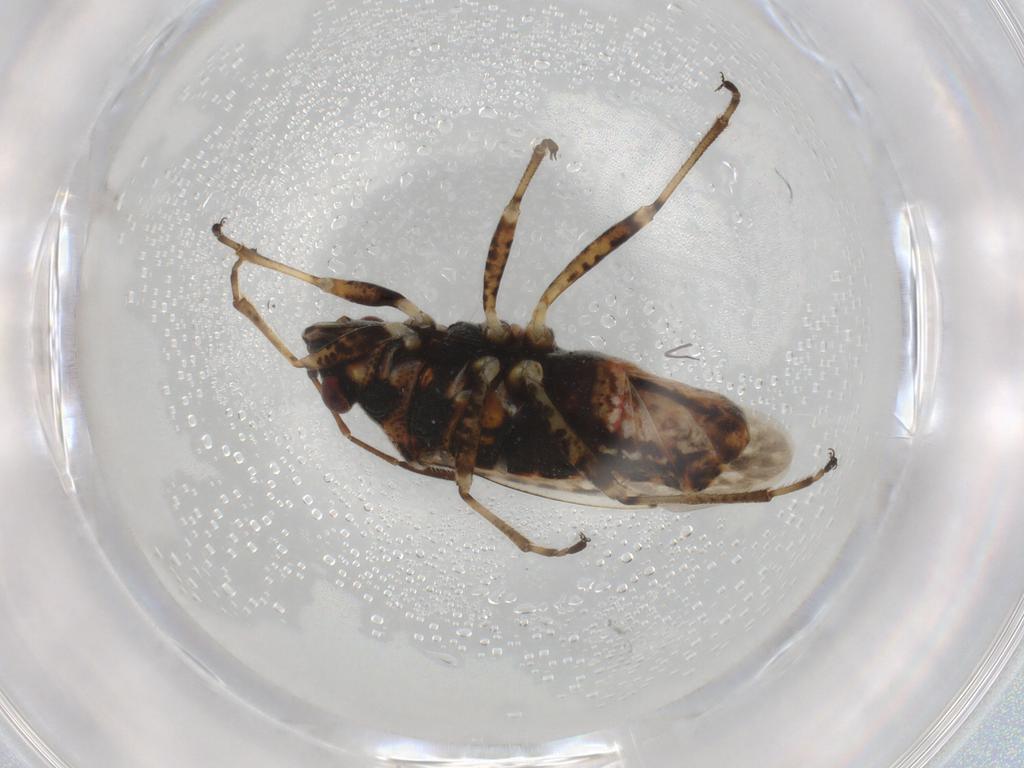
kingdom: Animalia
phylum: Arthropoda
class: Insecta
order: Hemiptera
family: Lygaeidae
